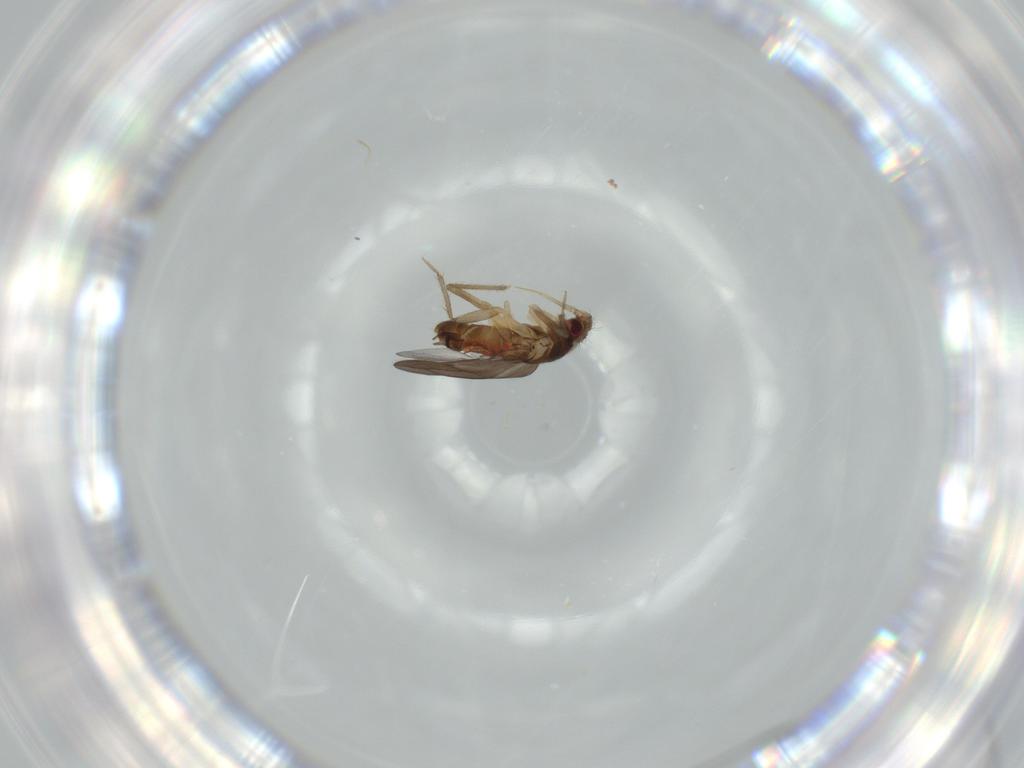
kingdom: Animalia
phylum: Arthropoda
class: Insecta
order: Hemiptera
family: Ceratocombidae
